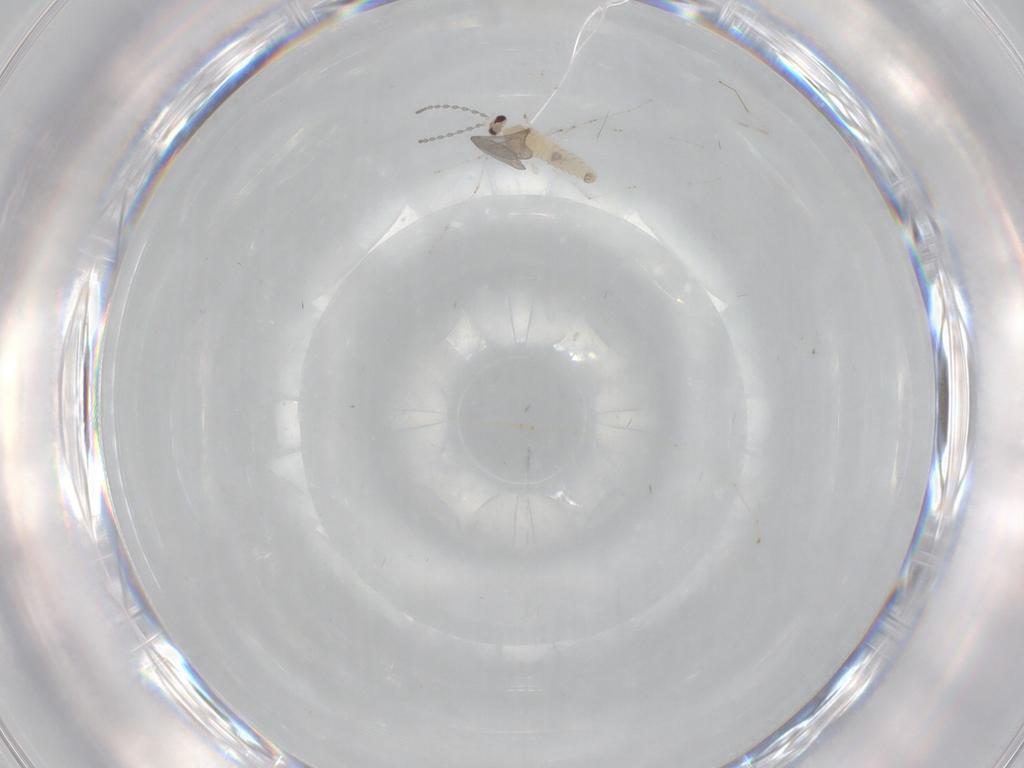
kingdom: Animalia
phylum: Arthropoda
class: Insecta
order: Diptera
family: Cecidomyiidae
